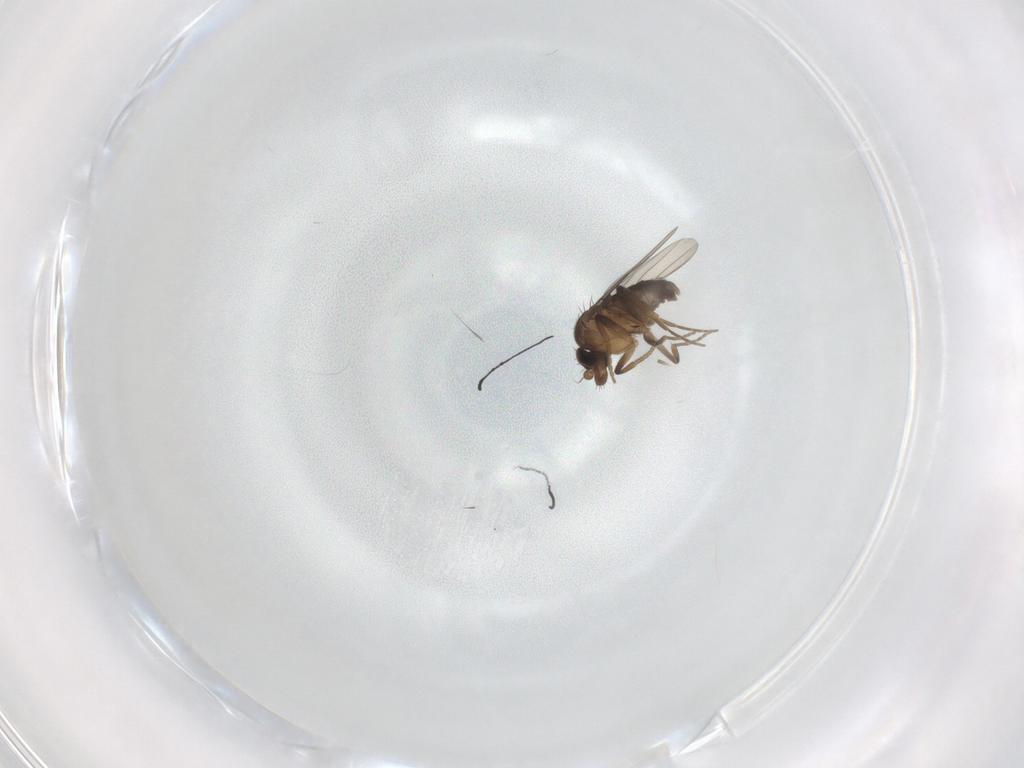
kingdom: Animalia
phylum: Arthropoda
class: Insecta
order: Diptera
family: Phoridae
